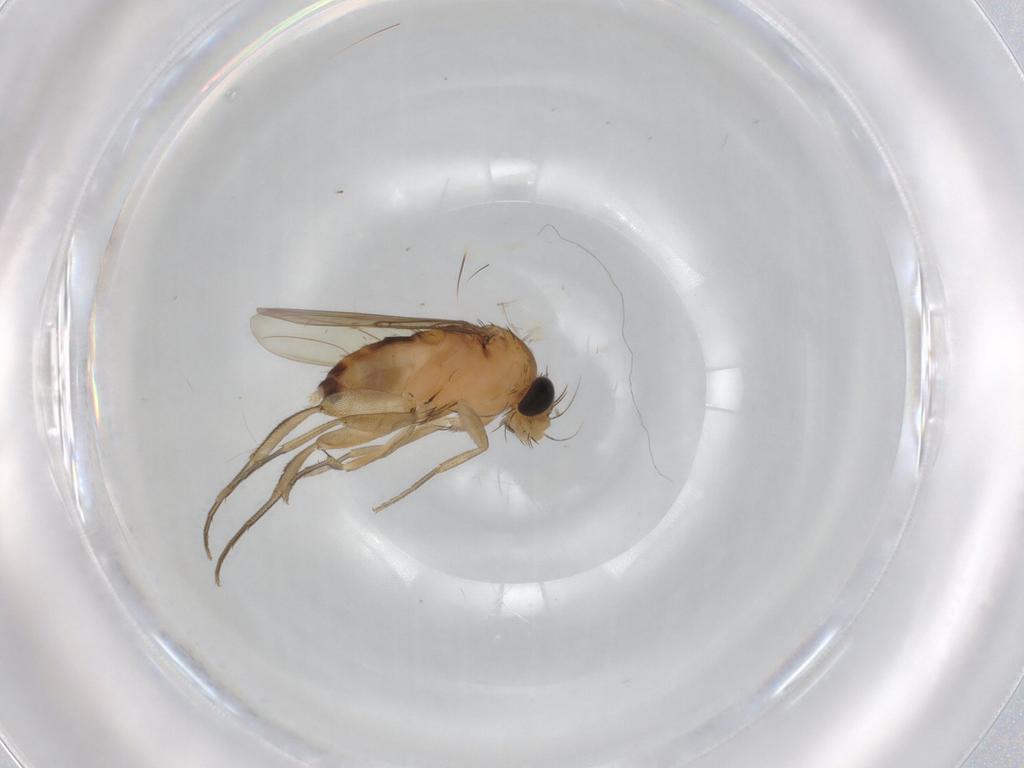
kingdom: Animalia
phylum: Arthropoda
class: Insecta
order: Diptera
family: Phoridae
